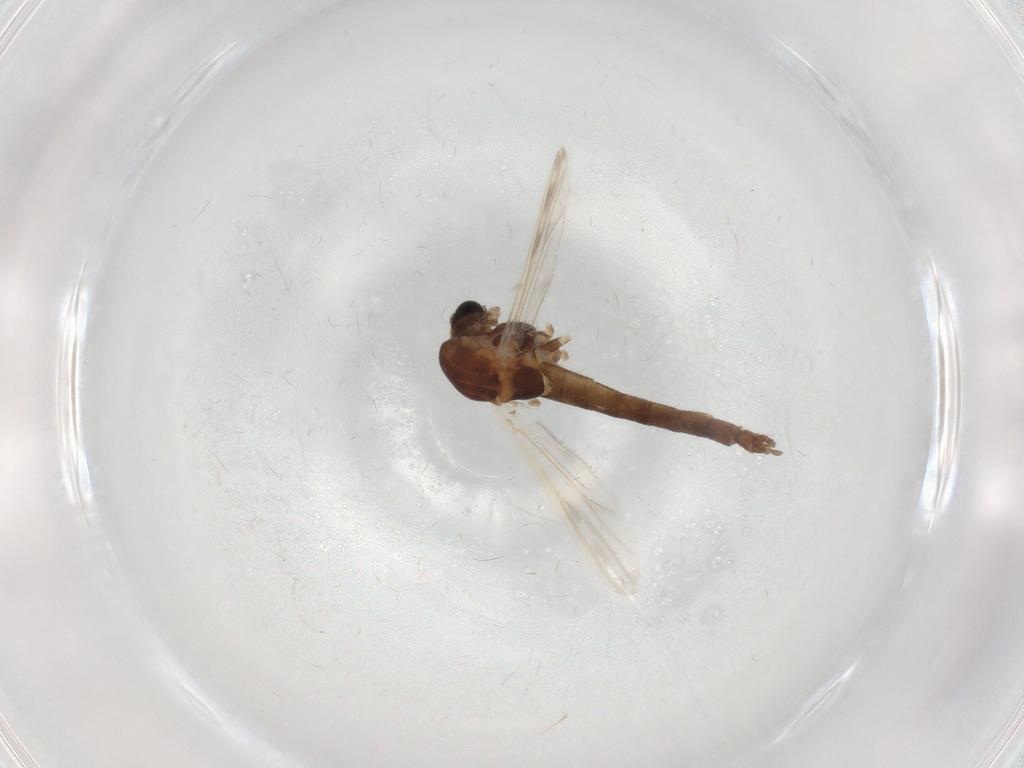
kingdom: Animalia
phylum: Arthropoda
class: Insecta
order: Diptera
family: Chironomidae
